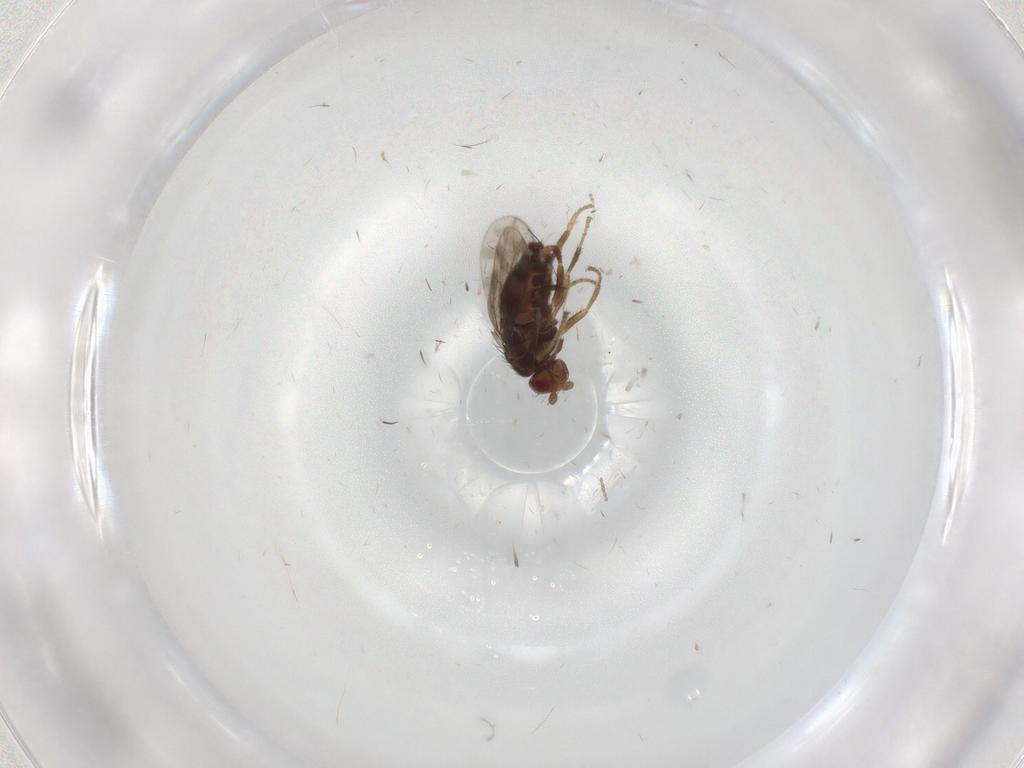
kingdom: Animalia
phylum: Arthropoda
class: Insecta
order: Diptera
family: Sphaeroceridae
